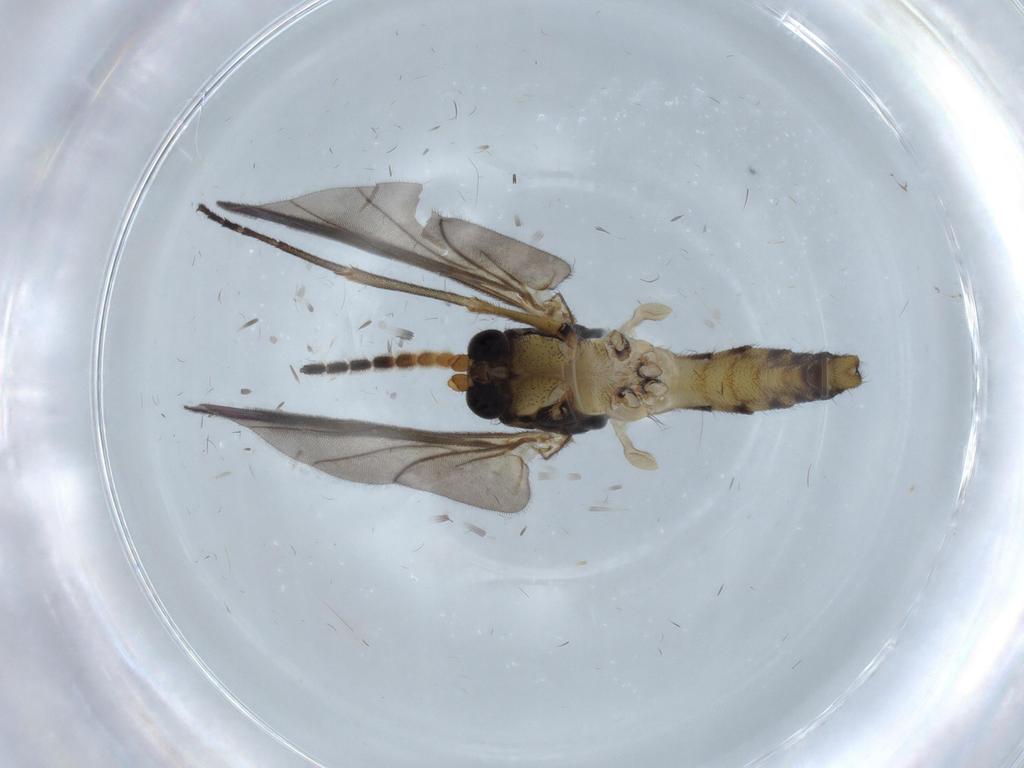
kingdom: Animalia
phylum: Arthropoda
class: Insecta
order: Diptera
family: Cecidomyiidae
